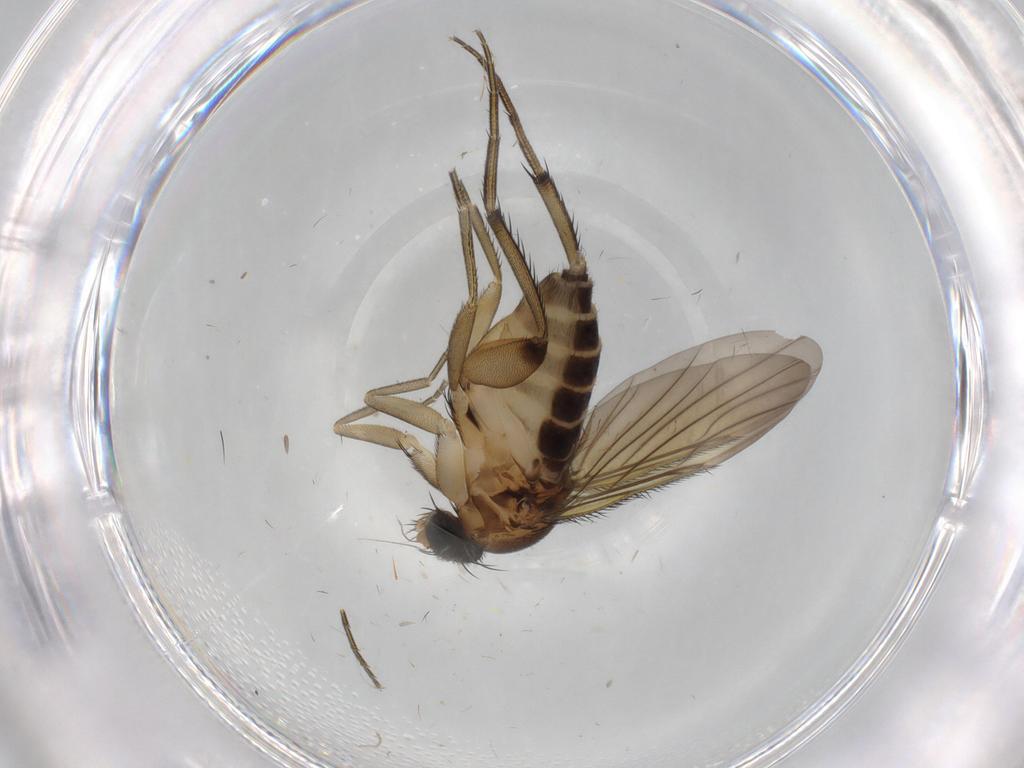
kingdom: Animalia
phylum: Arthropoda
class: Insecta
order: Diptera
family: Phoridae
